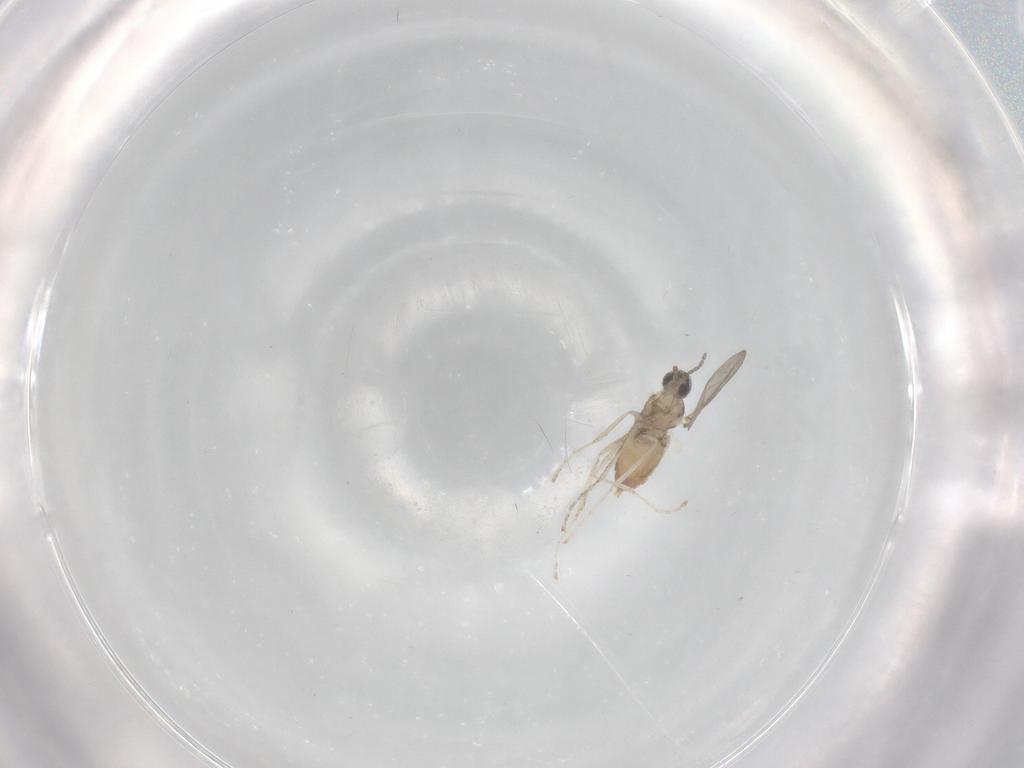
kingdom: Animalia
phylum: Arthropoda
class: Insecta
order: Diptera
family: Cecidomyiidae
